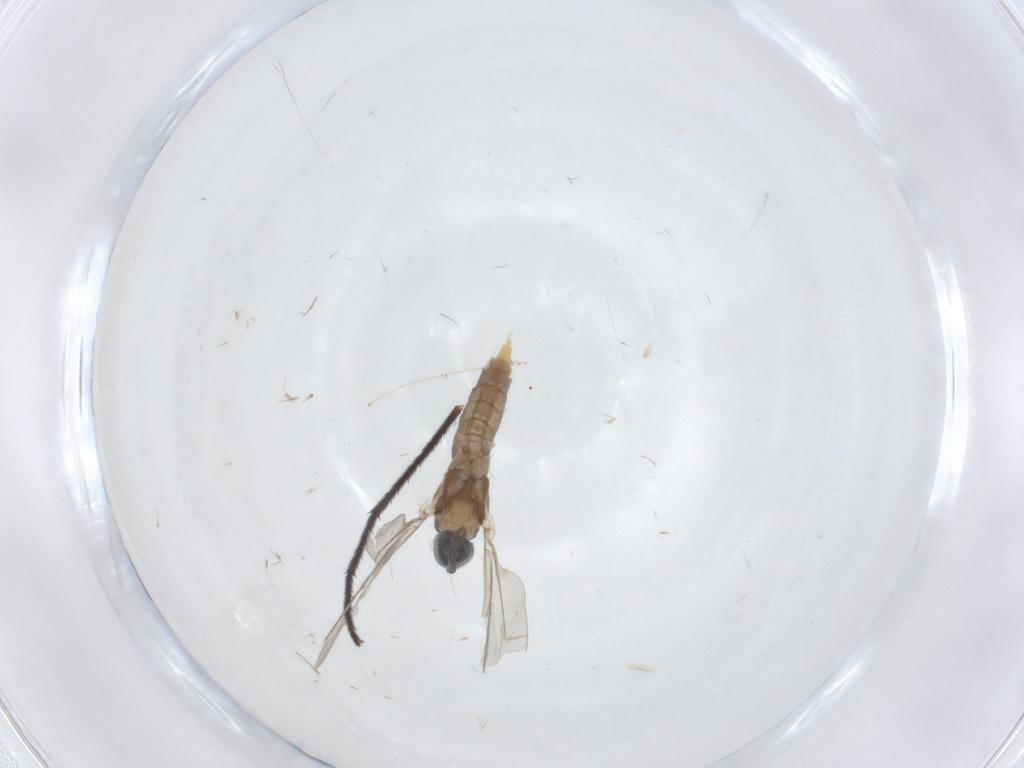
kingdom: Animalia
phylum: Arthropoda
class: Insecta
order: Diptera
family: Cecidomyiidae
